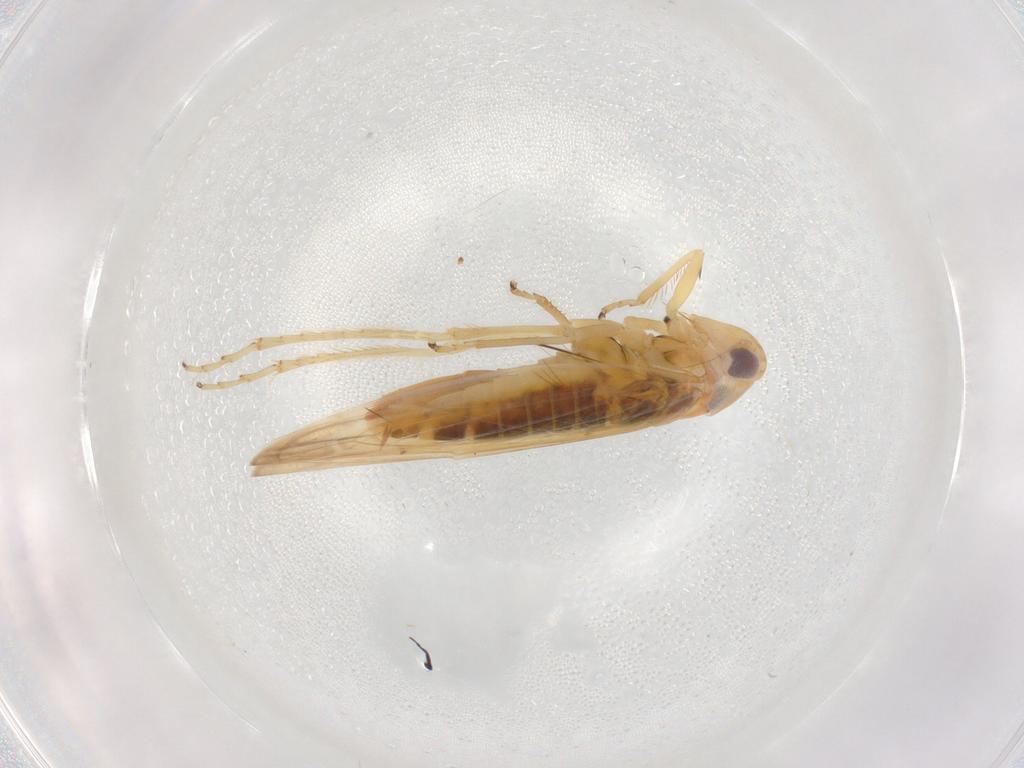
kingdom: Animalia
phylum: Arthropoda
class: Insecta
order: Hemiptera
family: Cicadellidae
